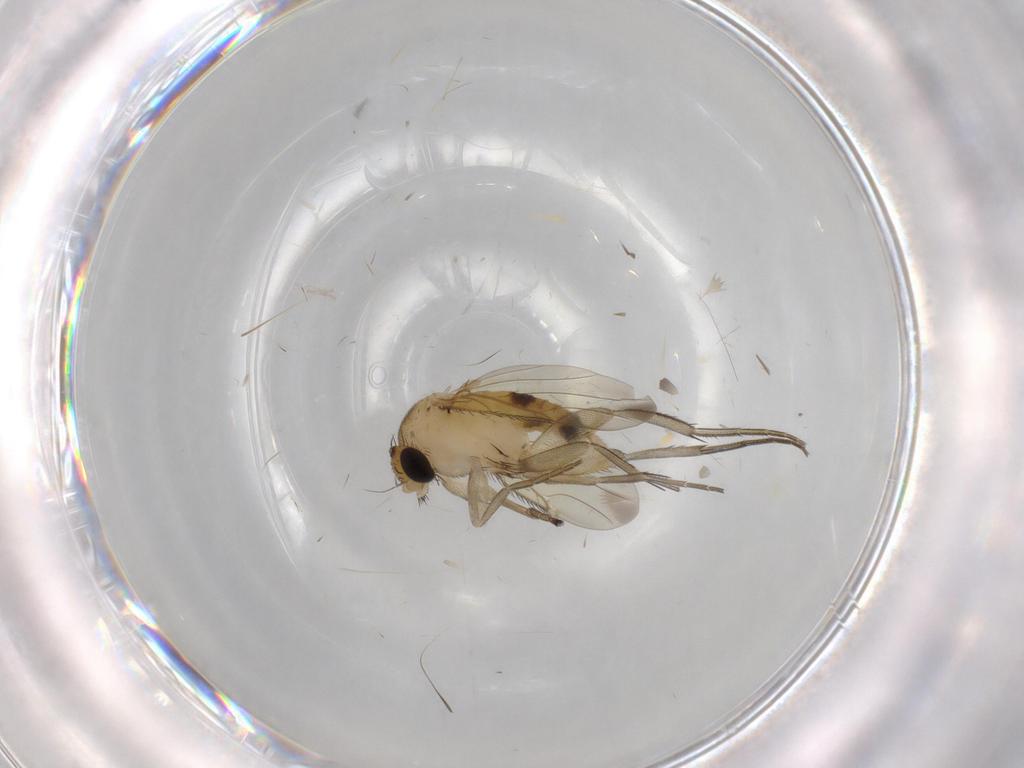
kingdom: Animalia
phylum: Arthropoda
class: Insecta
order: Diptera
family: Phoridae
